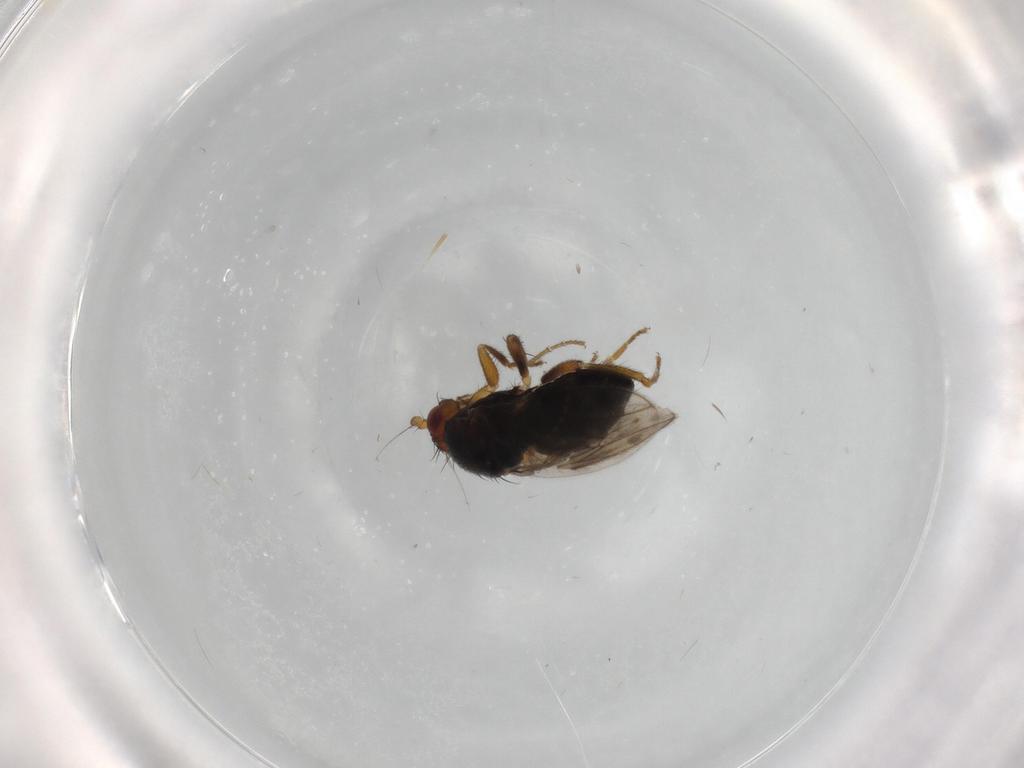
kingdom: Animalia
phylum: Arthropoda
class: Insecta
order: Diptera
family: Sphaeroceridae
